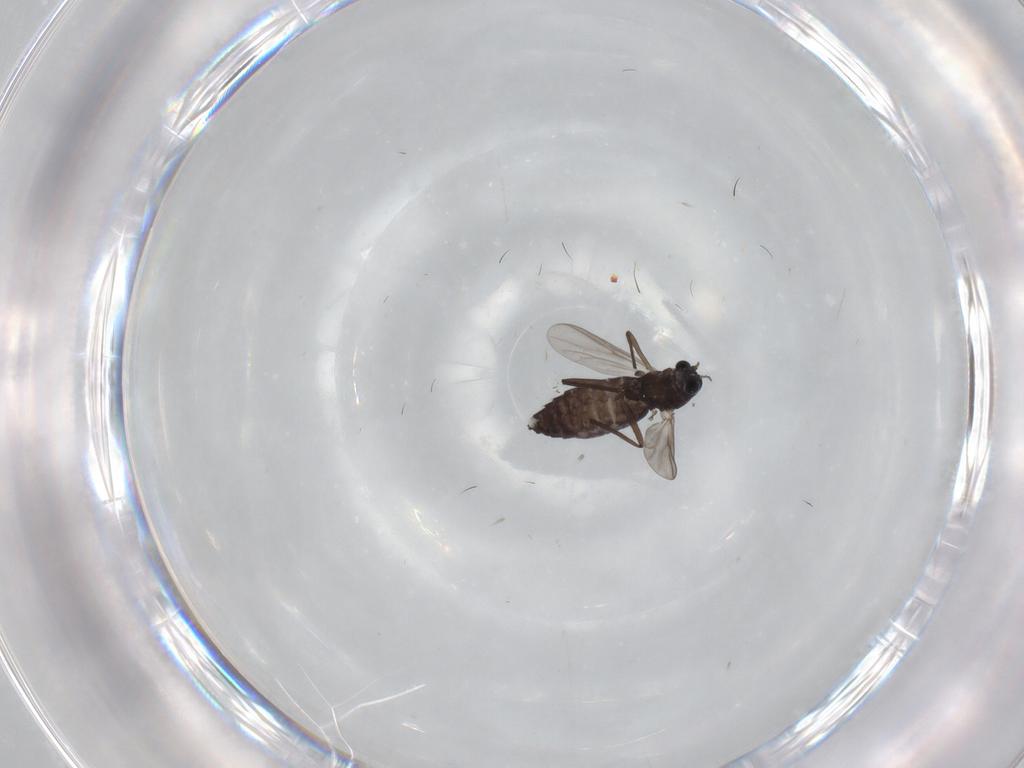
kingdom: Animalia
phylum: Arthropoda
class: Insecta
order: Diptera
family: Chironomidae
